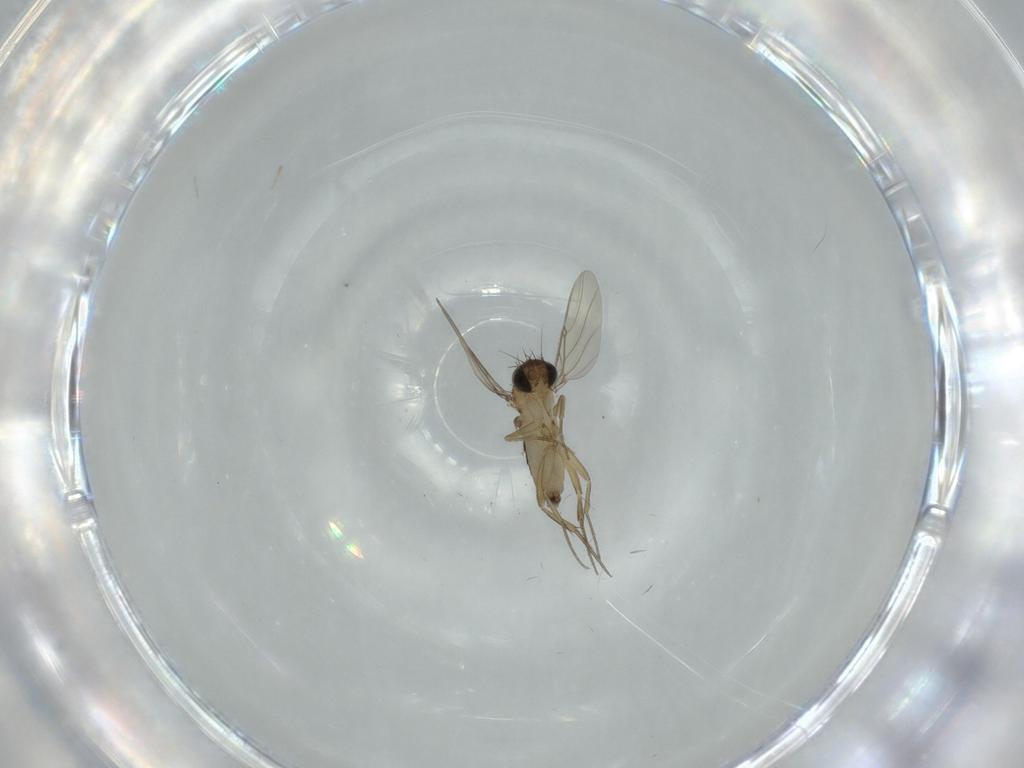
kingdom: Animalia
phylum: Arthropoda
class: Insecta
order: Diptera
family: Phoridae
